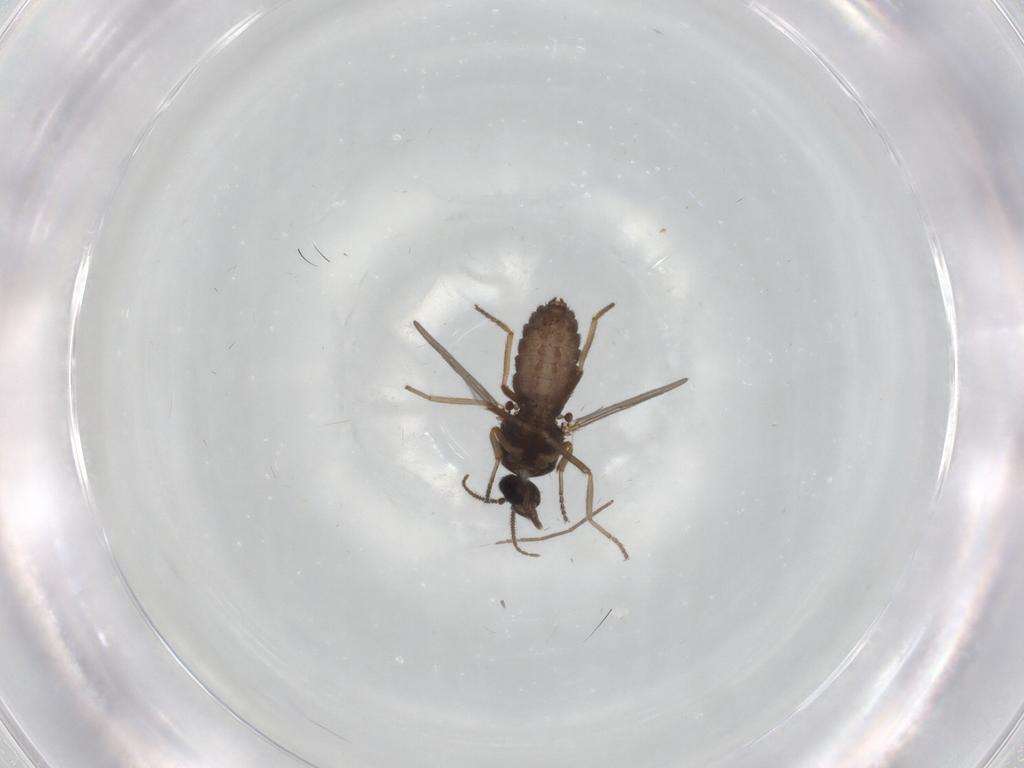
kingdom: Animalia
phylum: Arthropoda
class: Insecta
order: Diptera
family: Ceratopogonidae
